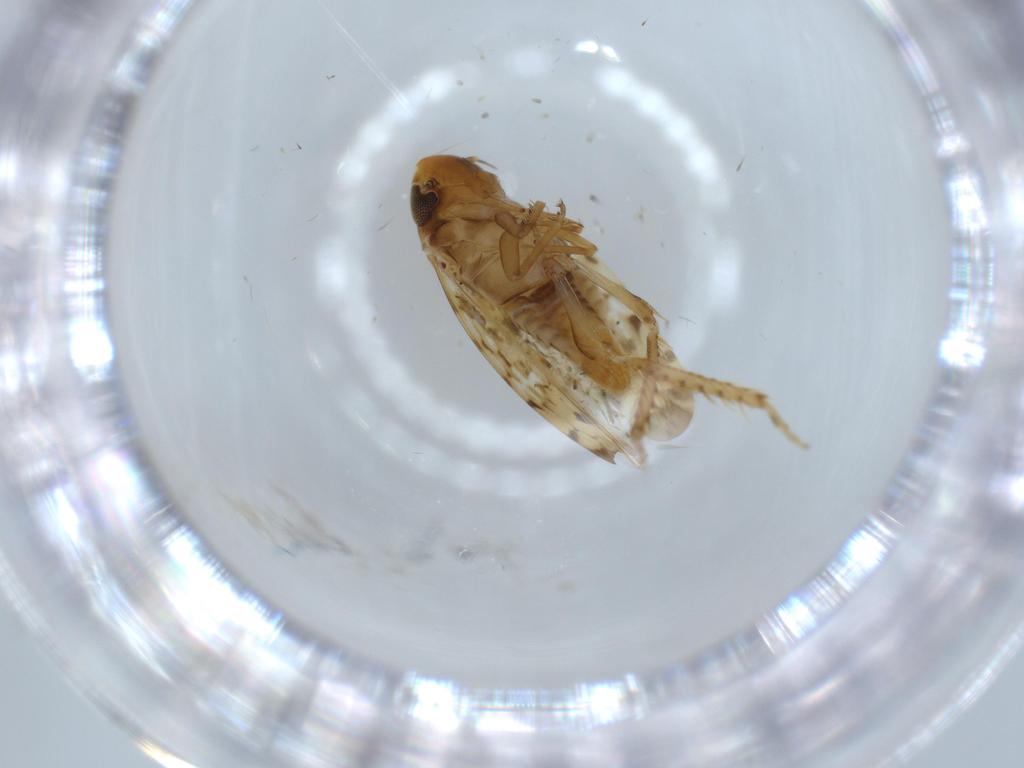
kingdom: Animalia
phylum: Arthropoda
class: Insecta
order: Hemiptera
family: Cicadellidae
